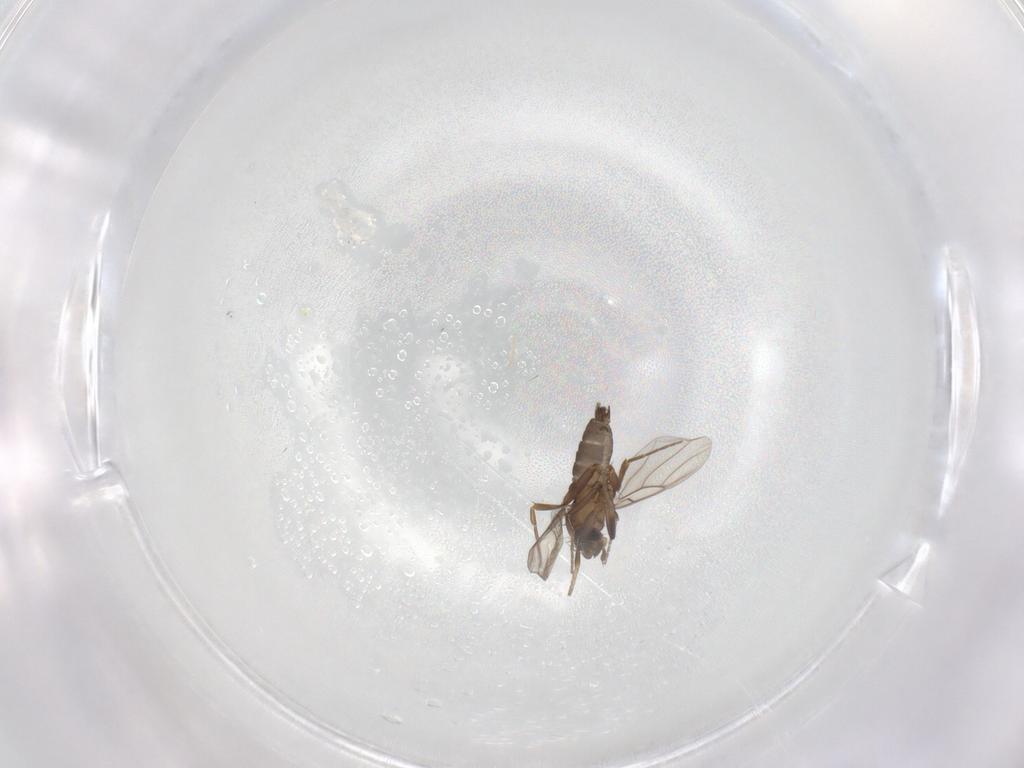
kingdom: Animalia
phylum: Arthropoda
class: Insecta
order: Diptera
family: Phoridae
